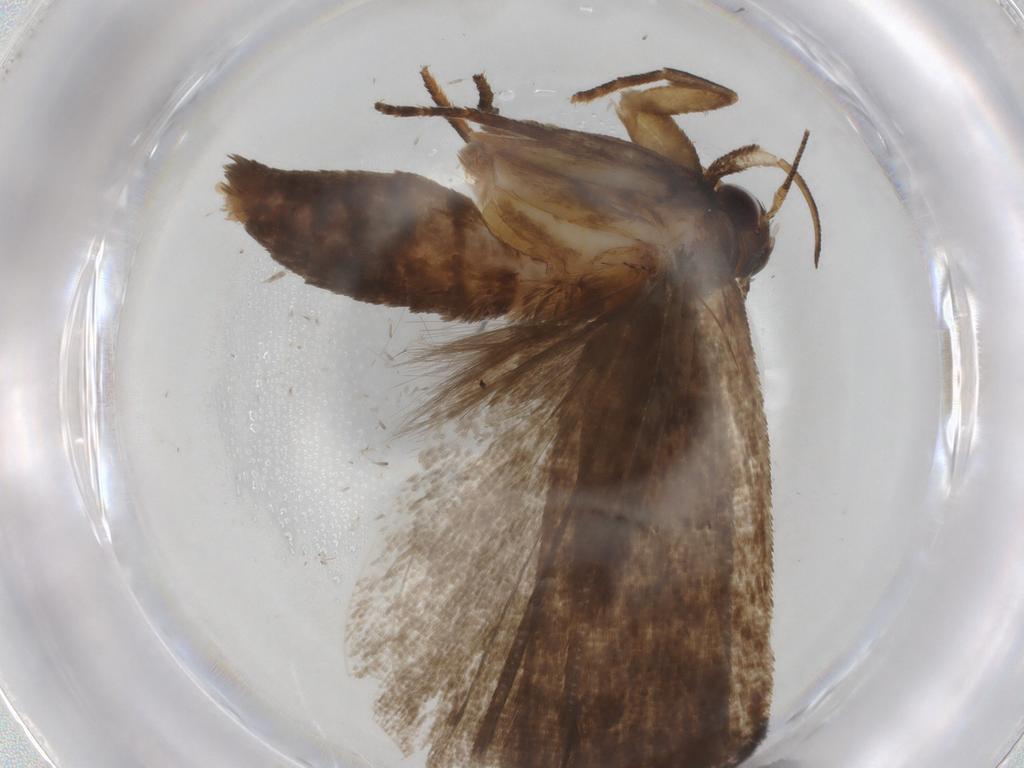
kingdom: Animalia
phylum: Arthropoda
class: Insecta
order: Lepidoptera
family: Gelechiidae
